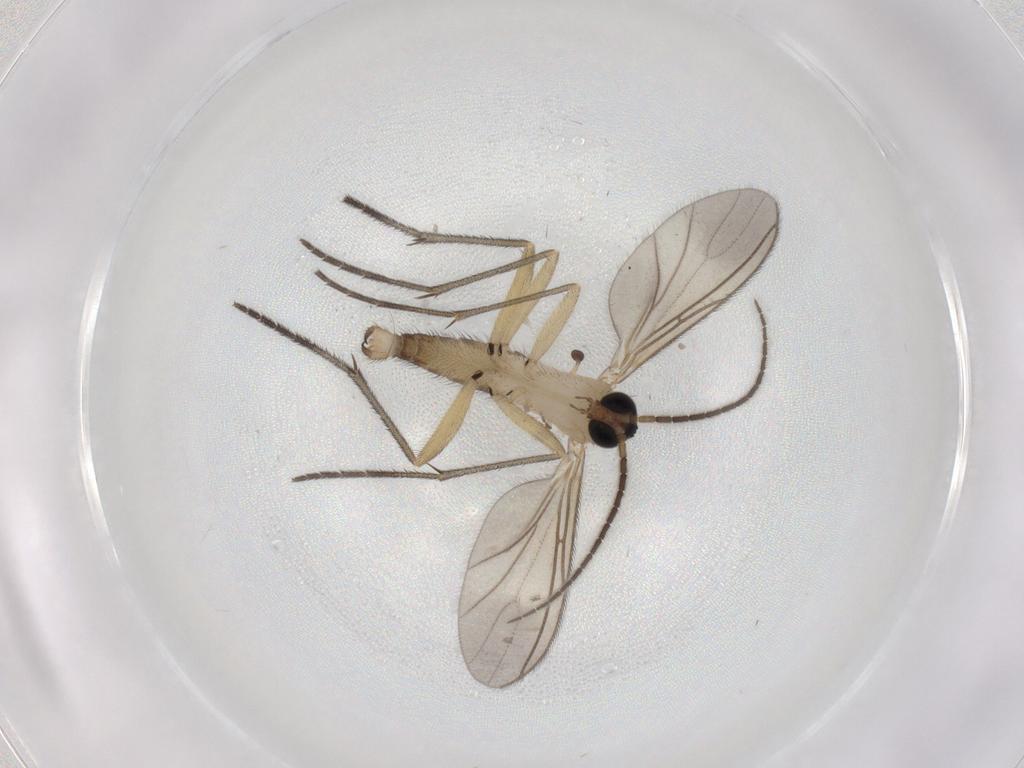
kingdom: Animalia
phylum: Arthropoda
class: Insecta
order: Diptera
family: Sciaridae
